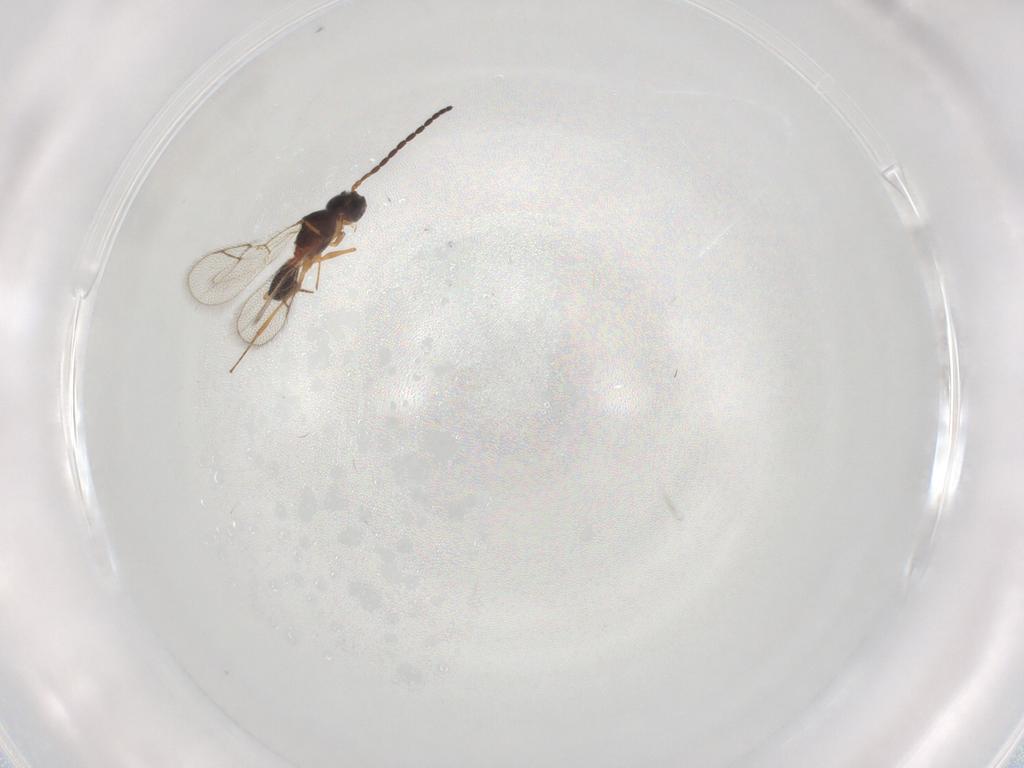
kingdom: Animalia
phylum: Arthropoda
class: Insecta
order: Hymenoptera
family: Figitidae
